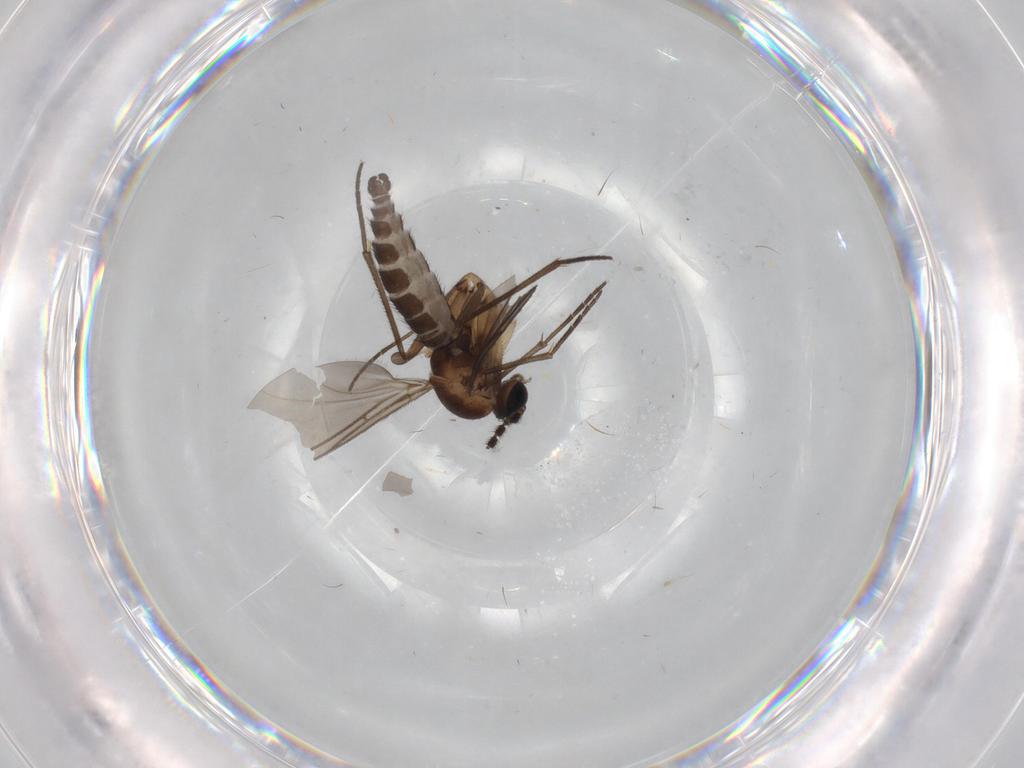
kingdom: Animalia
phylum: Arthropoda
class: Insecta
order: Diptera
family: Sciaridae
